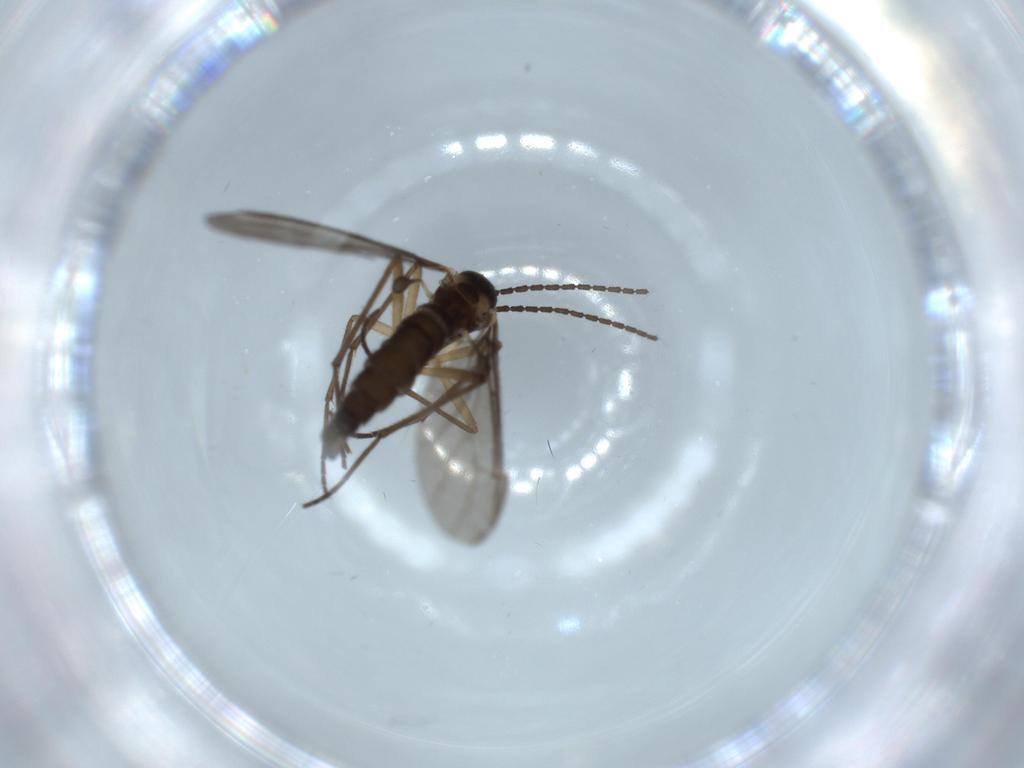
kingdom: Animalia
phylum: Arthropoda
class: Insecta
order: Diptera
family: Sciaridae
